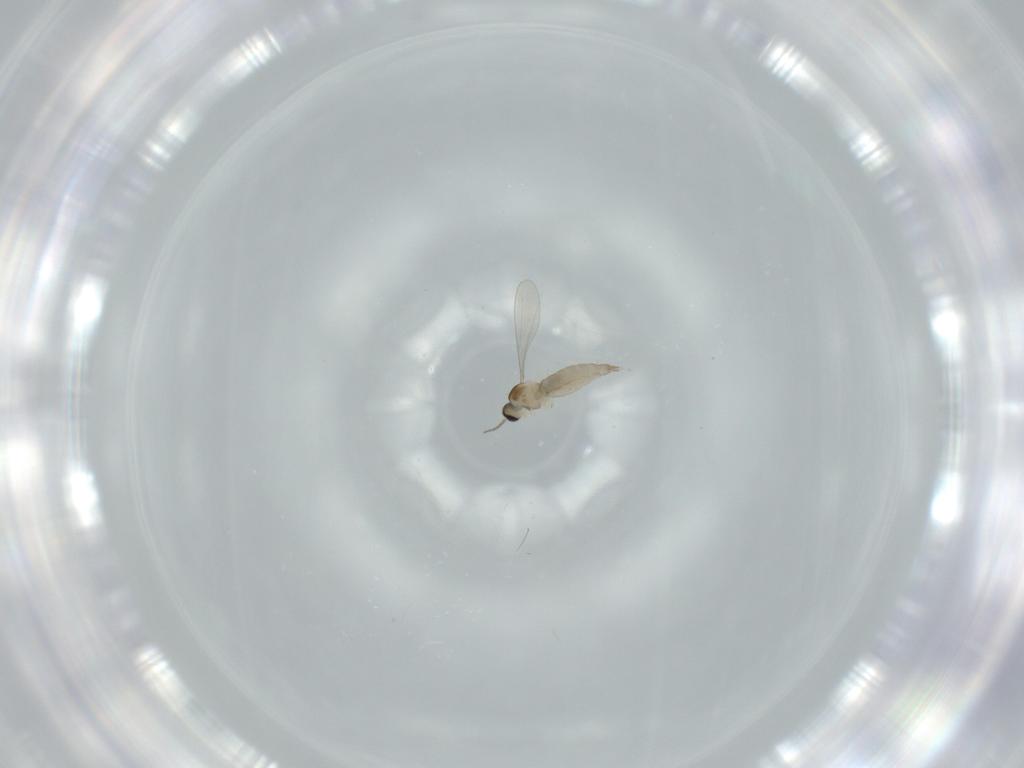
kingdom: Animalia
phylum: Arthropoda
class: Insecta
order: Diptera
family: Cecidomyiidae
